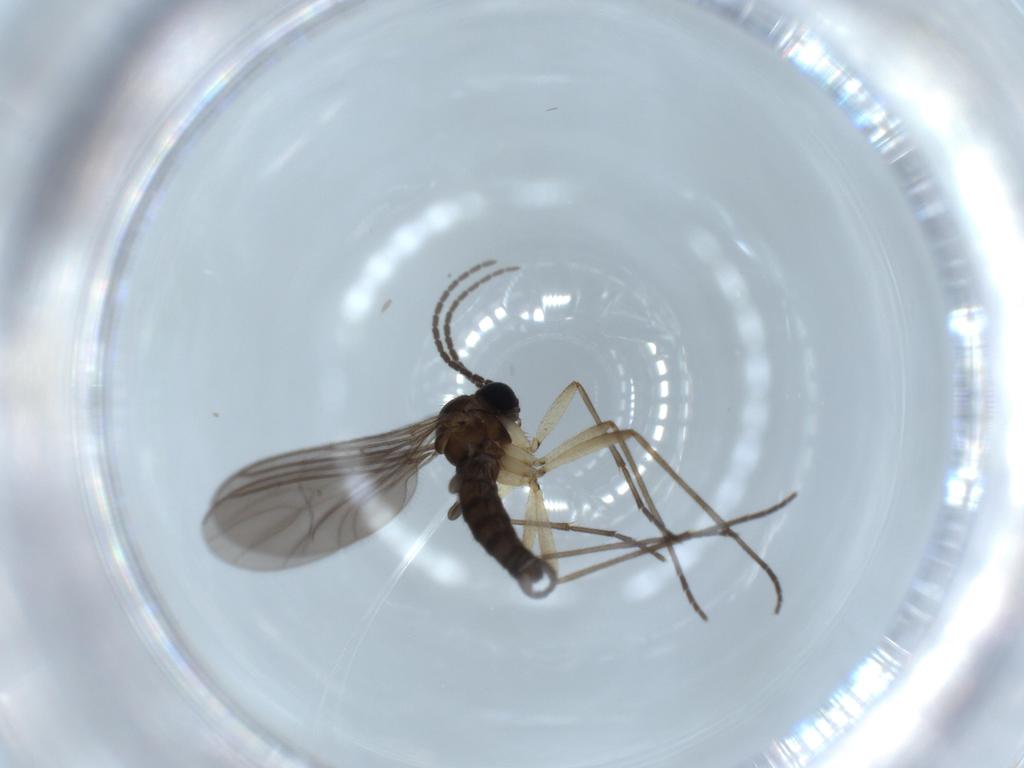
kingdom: Animalia
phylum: Arthropoda
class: Insecta
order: Diptera
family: Sciaridae
